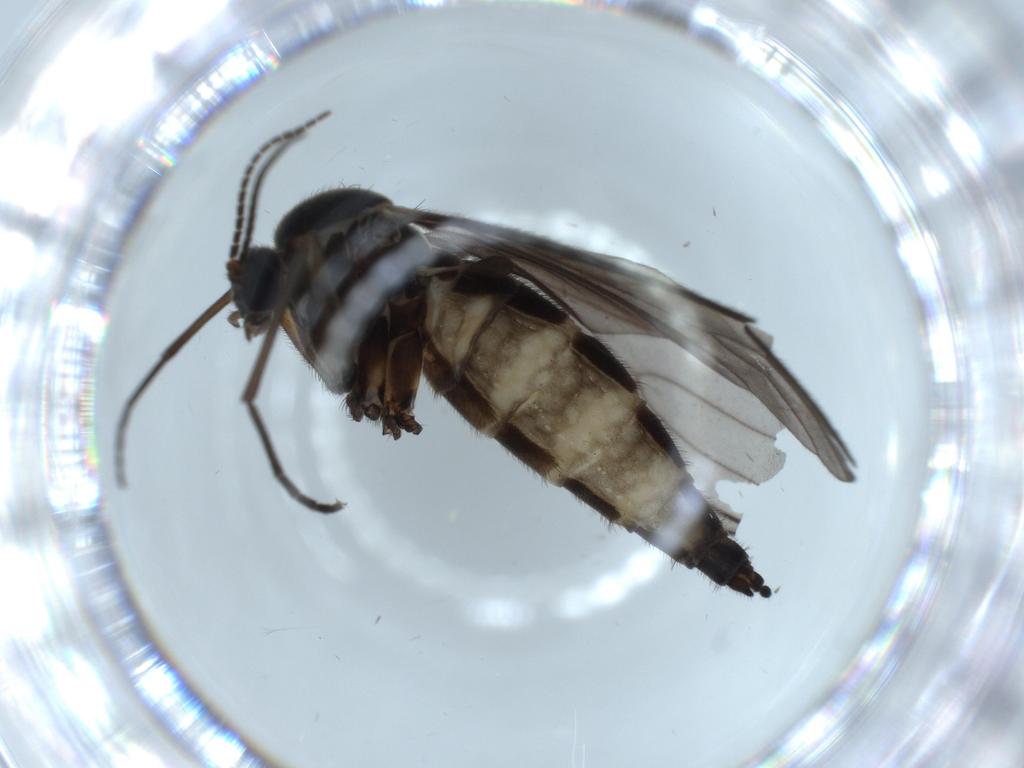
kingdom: Animalia
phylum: Arthropoda
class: Insecta
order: Diptera
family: Sciaridae
